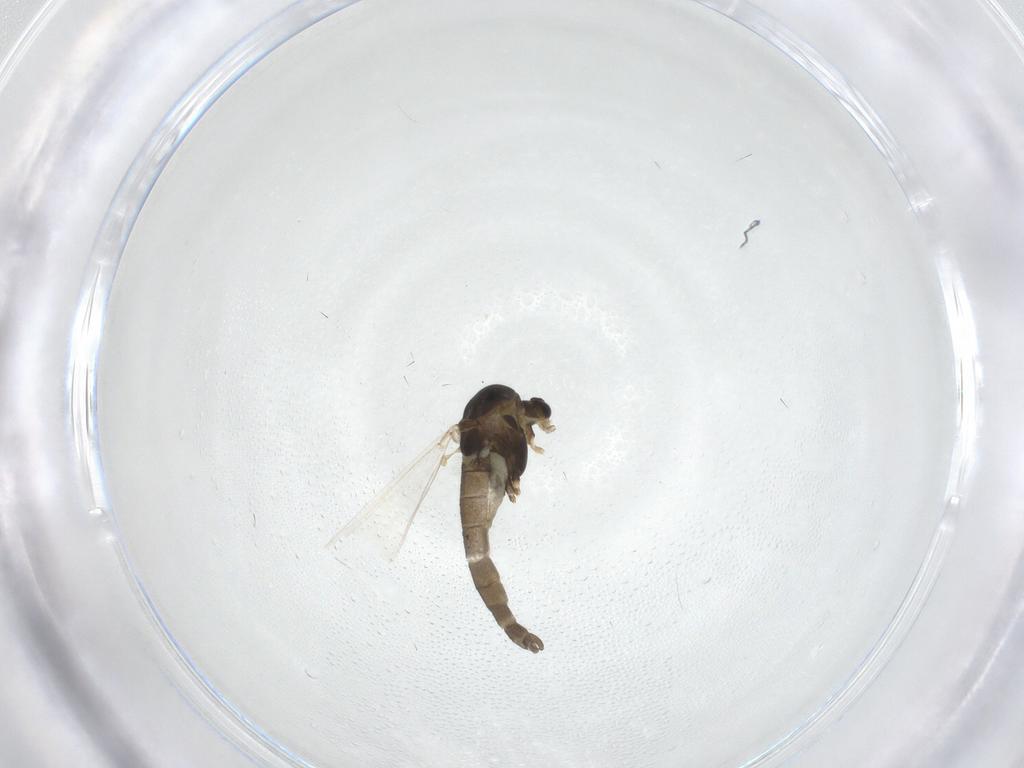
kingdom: Animalia
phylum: Arthropoda
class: Insecta
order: Diptera
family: Chironomidae
